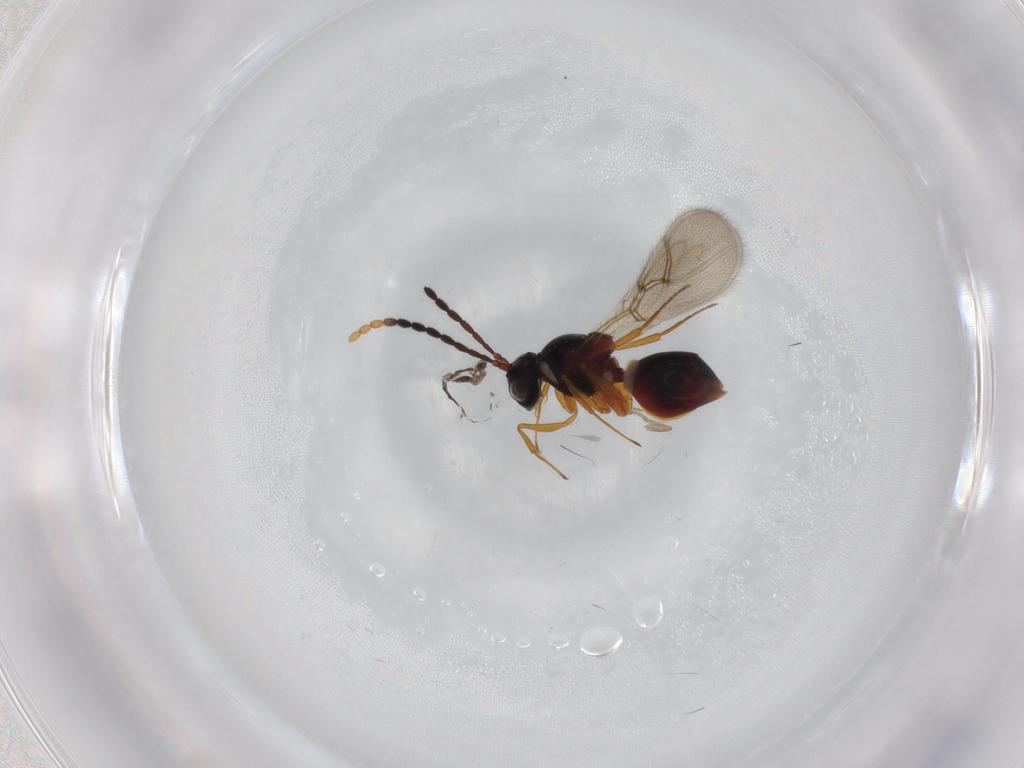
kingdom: Animalia
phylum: Arthropoda
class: Insecta
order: Hymenoptera
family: Figitidae
